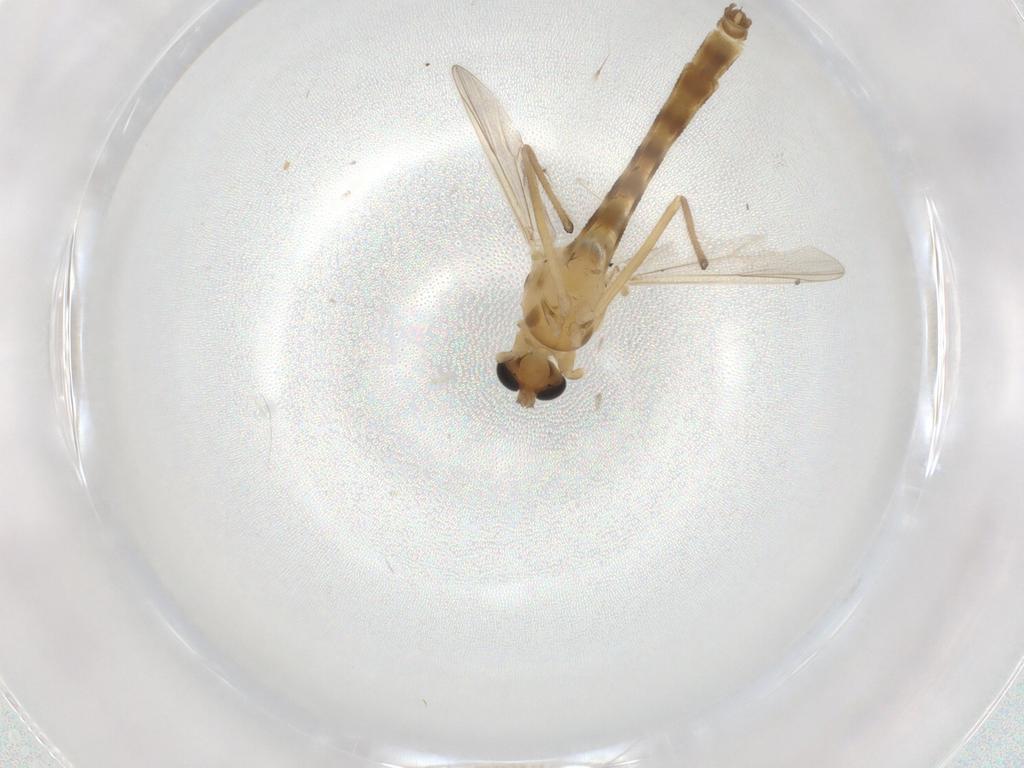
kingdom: Animalia
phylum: Arthropoda
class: Insecta
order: Diptera
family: Chironomidae
